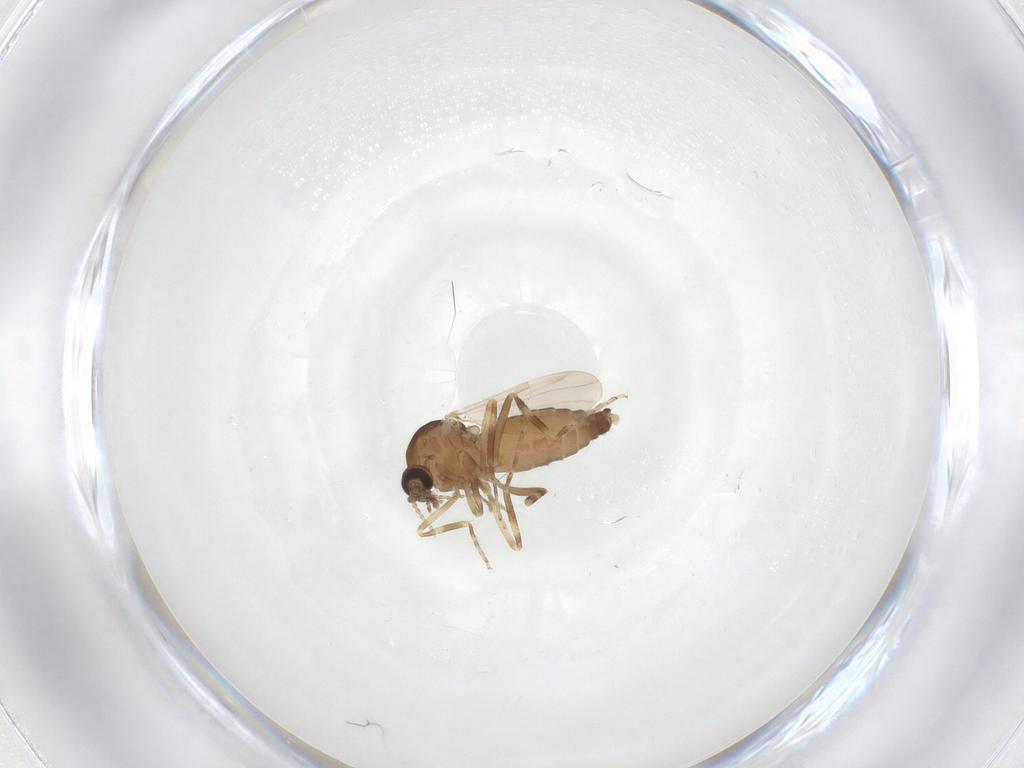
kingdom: Animalia
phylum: Arthropoda
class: Insecta
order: Diptera
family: Ceratopogonidae
